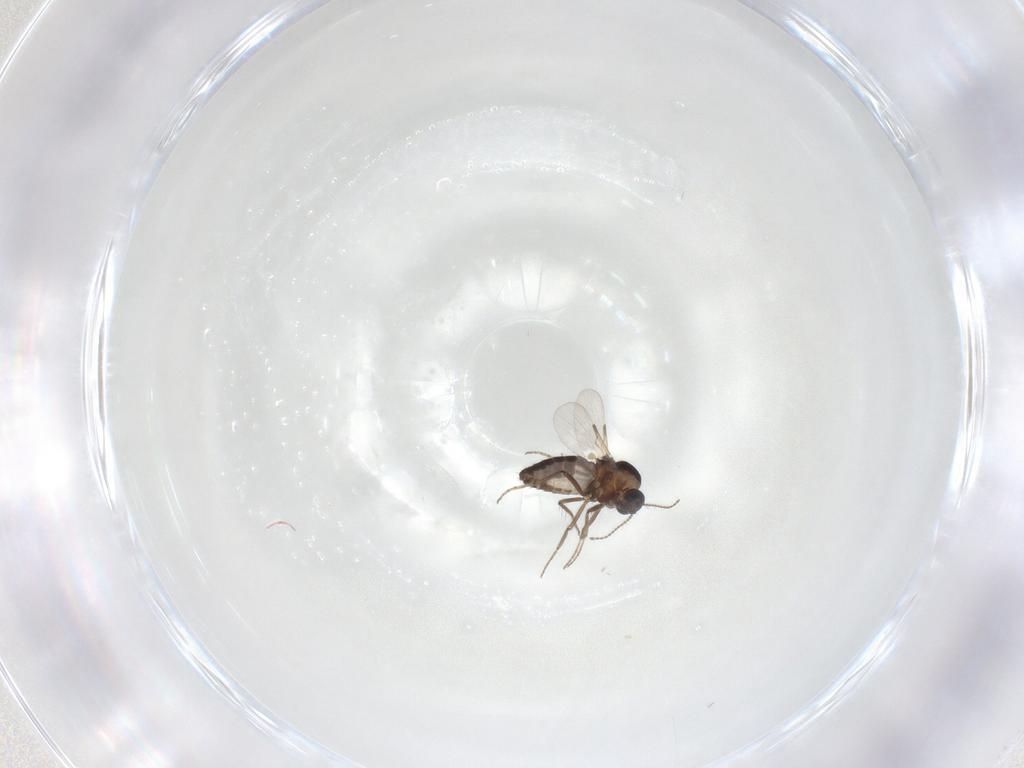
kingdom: Animalia
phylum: Arthropoda
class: Insecta
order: Diptera
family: Ceratopogonidae
